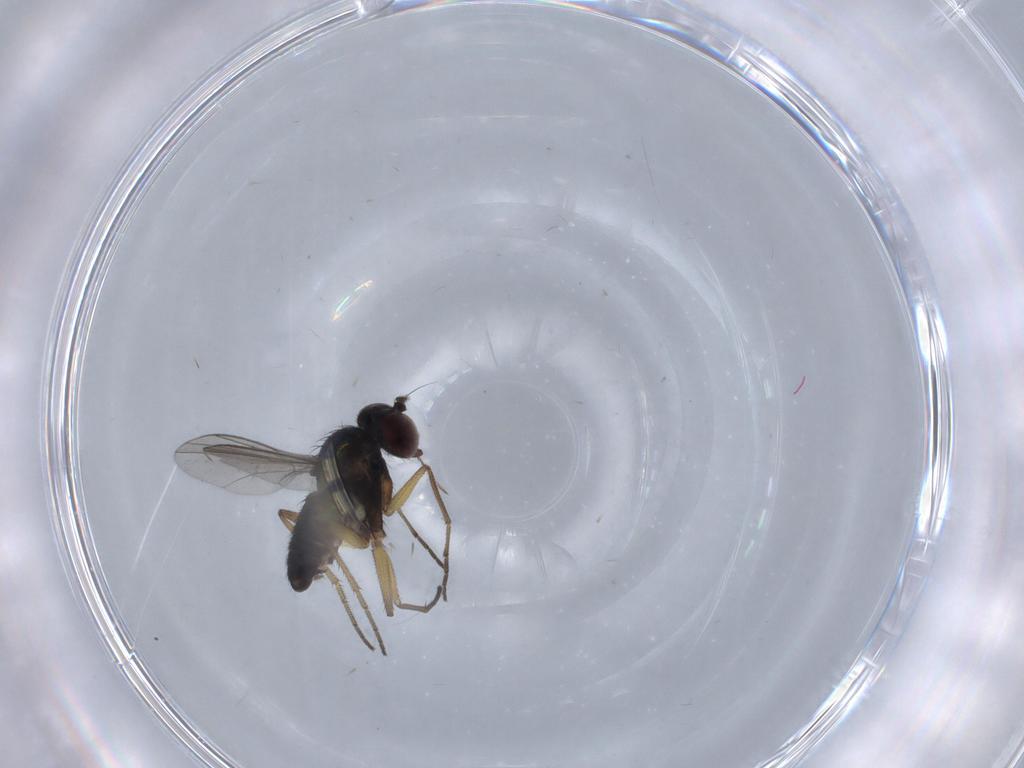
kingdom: Animalia
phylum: Arthropoda
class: Insecta
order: Diptera
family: Dolichopodidae
